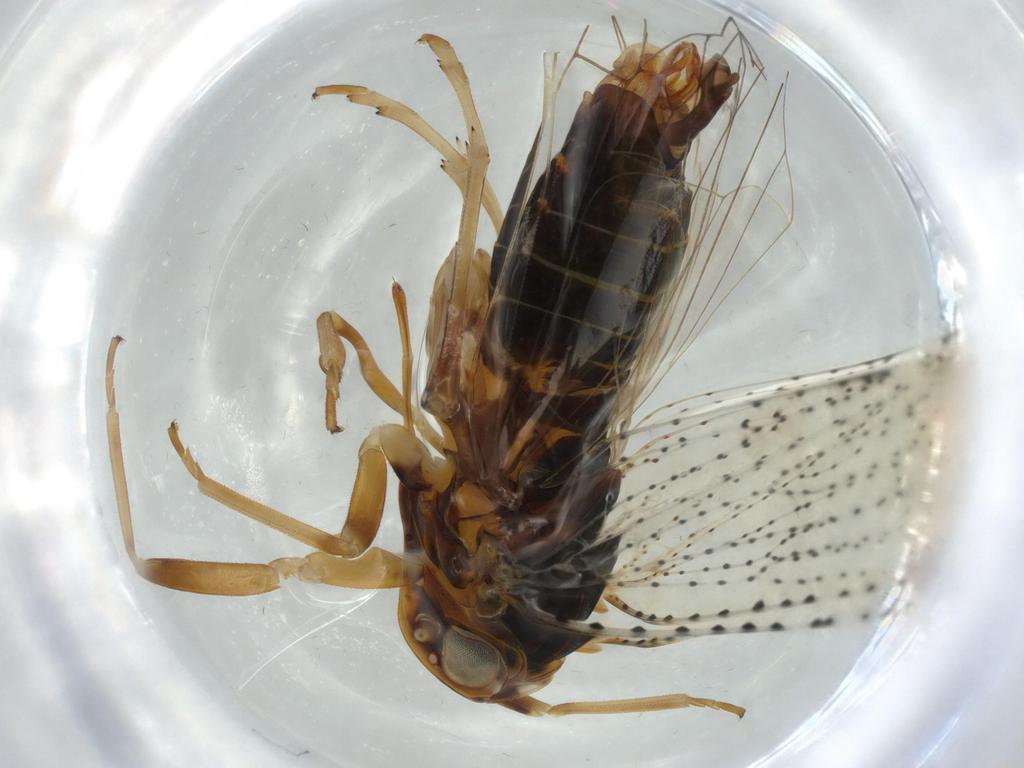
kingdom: Animalia
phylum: Arthropoda
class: Insecta
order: Diptera
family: Chironomidae
